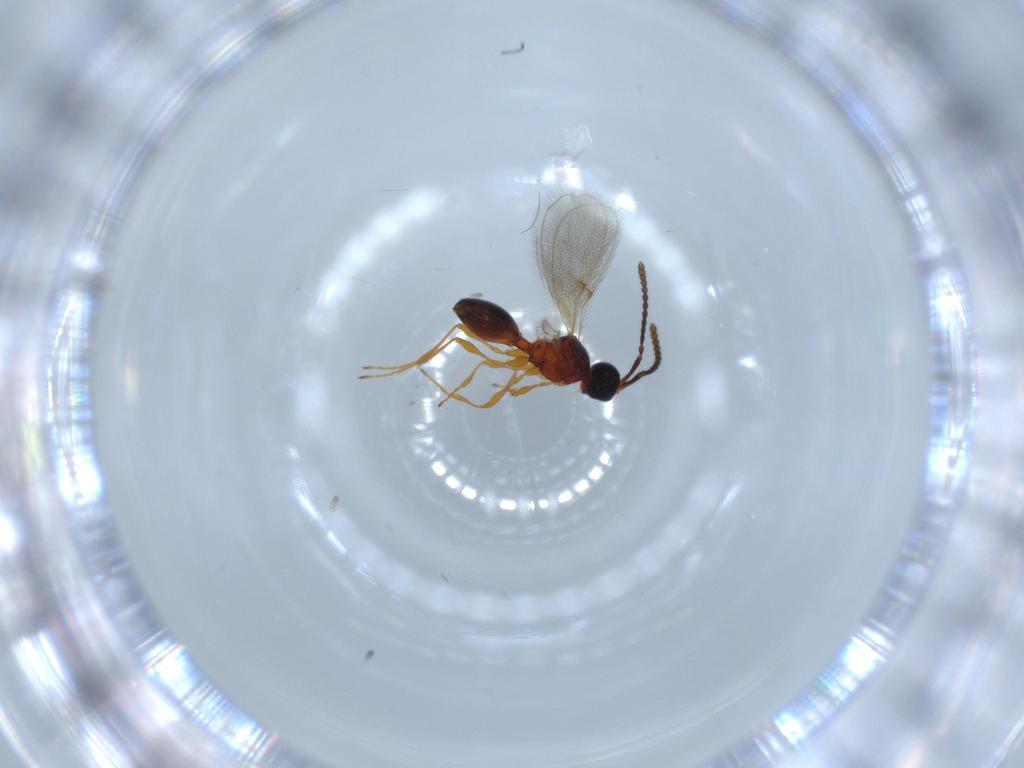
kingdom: Animalia
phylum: Arthropoda
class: Insecta
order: Hymenoptera
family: Diapriidae
